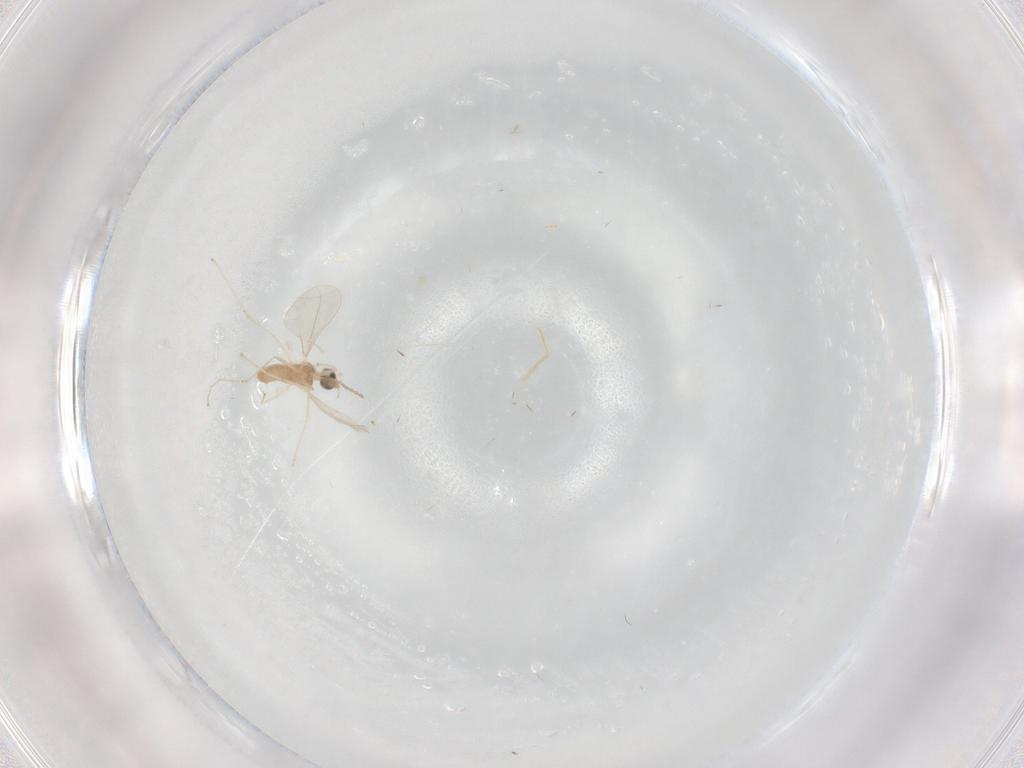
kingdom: Animalia
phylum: Arthropoda
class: Insecta
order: Diptera
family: Cecidomyiidae
